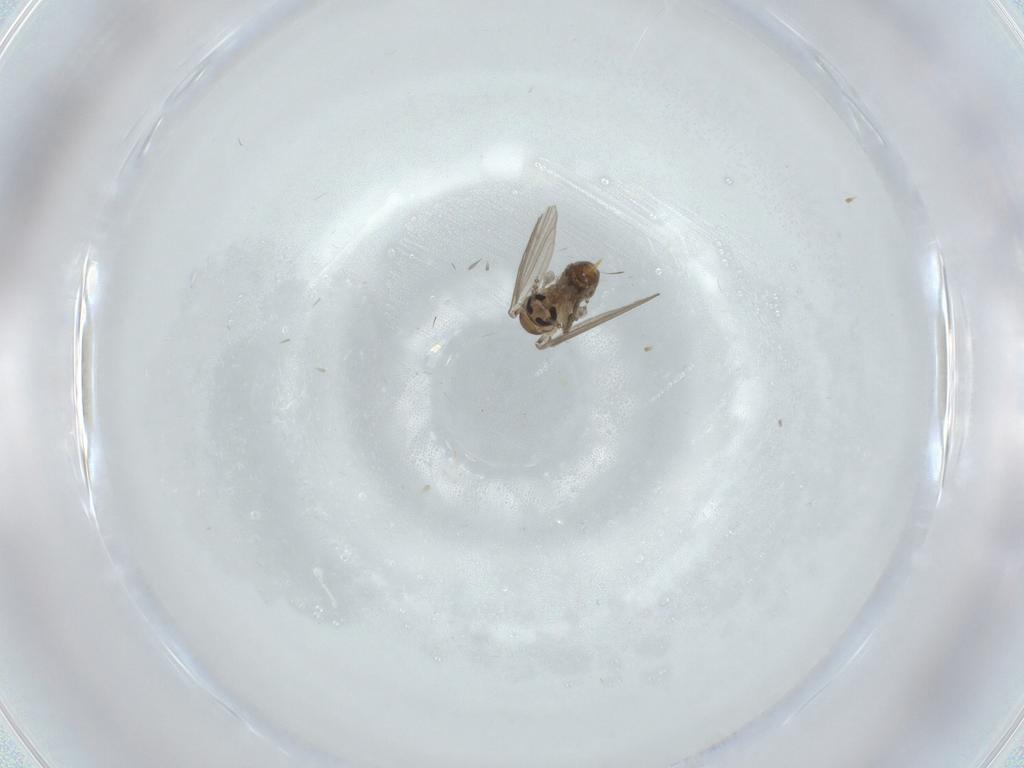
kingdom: Animalia
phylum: Arthropoda
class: Insecta
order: Diptera
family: Psychodidae
